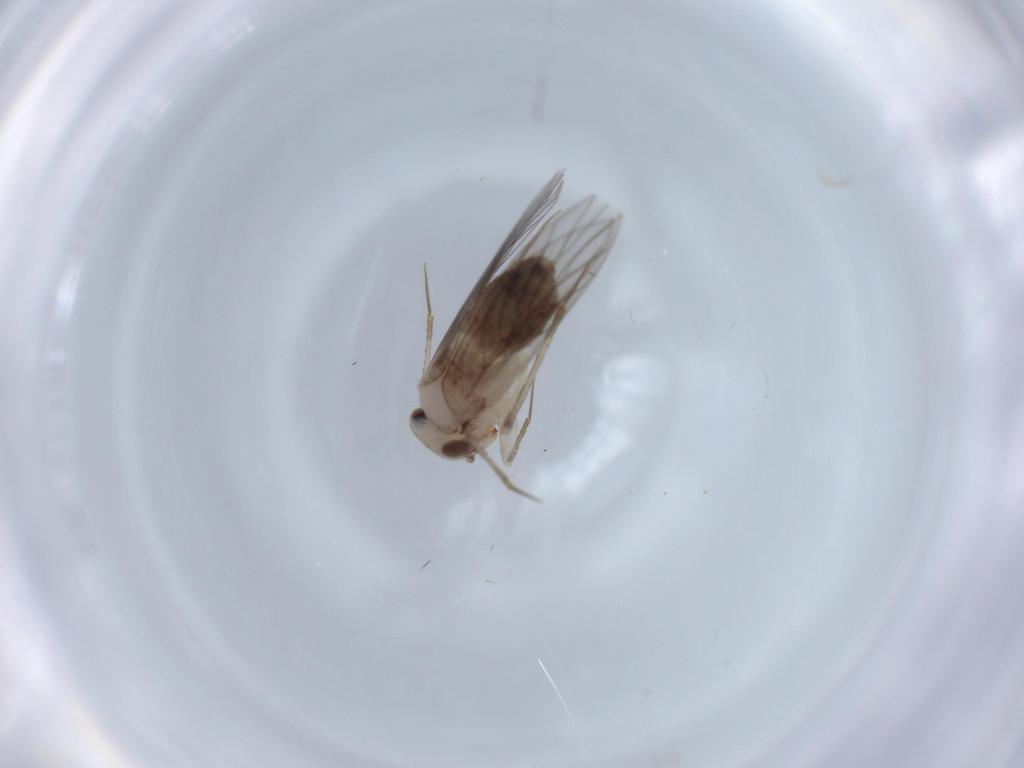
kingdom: Animalia
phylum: Arthropoda
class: Insecta
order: Psocodea
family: Lepidopsocidae
